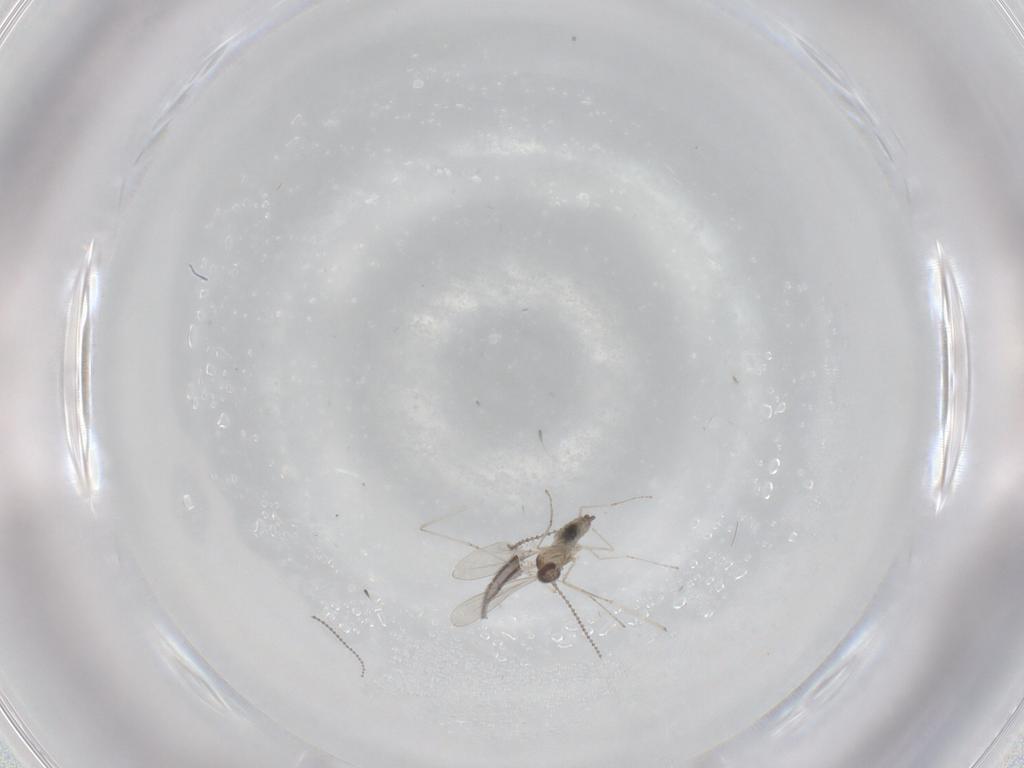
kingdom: Animalia
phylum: Arthropoda
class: Insecta
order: Diptera
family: Cecidomyiidae
